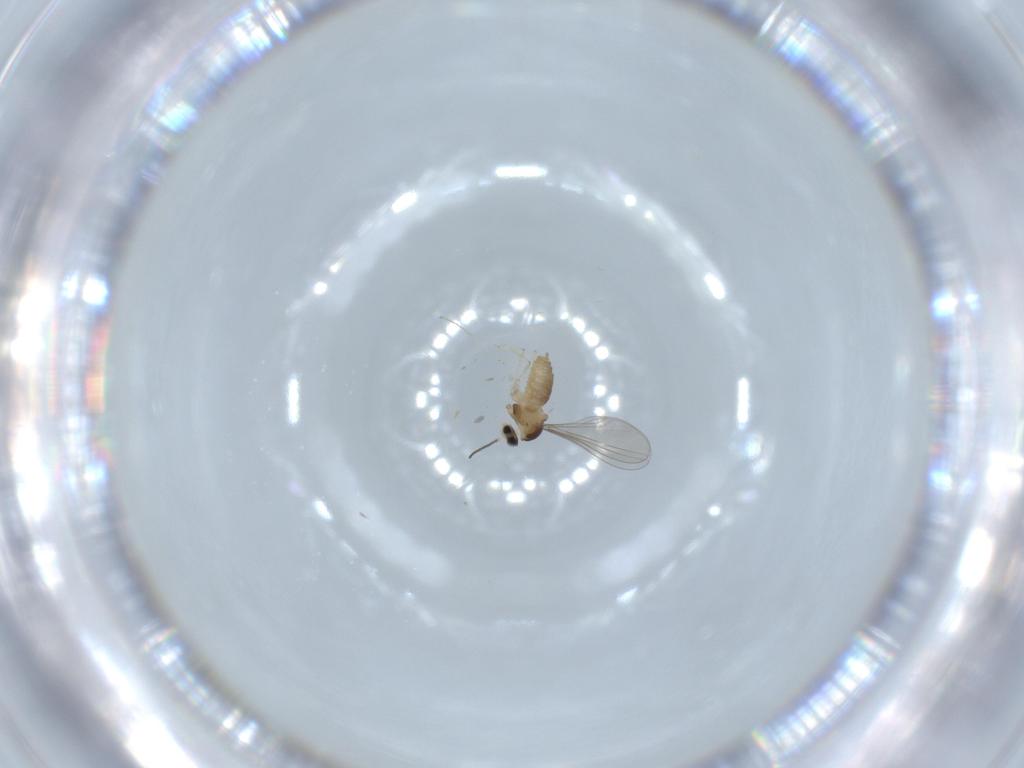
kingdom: Animalia
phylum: Arthropoda
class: Insecta
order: Diptera
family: Cecidomyiidae
